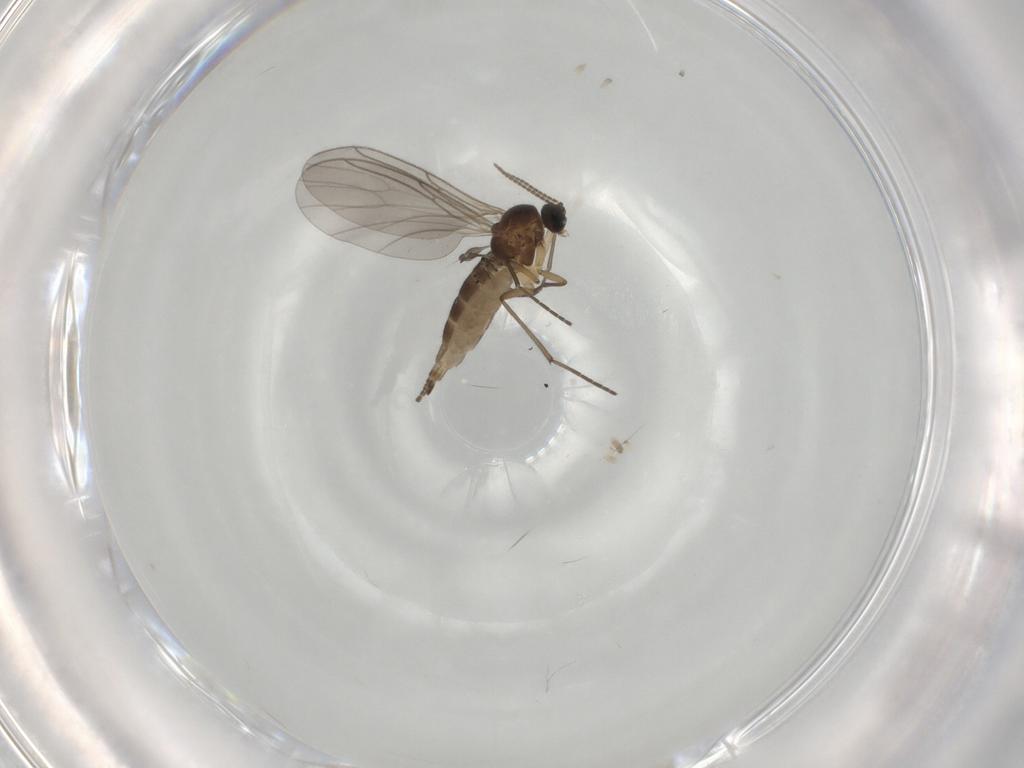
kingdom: Animalia
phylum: Arthropoda
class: Insecta
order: Diptera
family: Sciaridae
